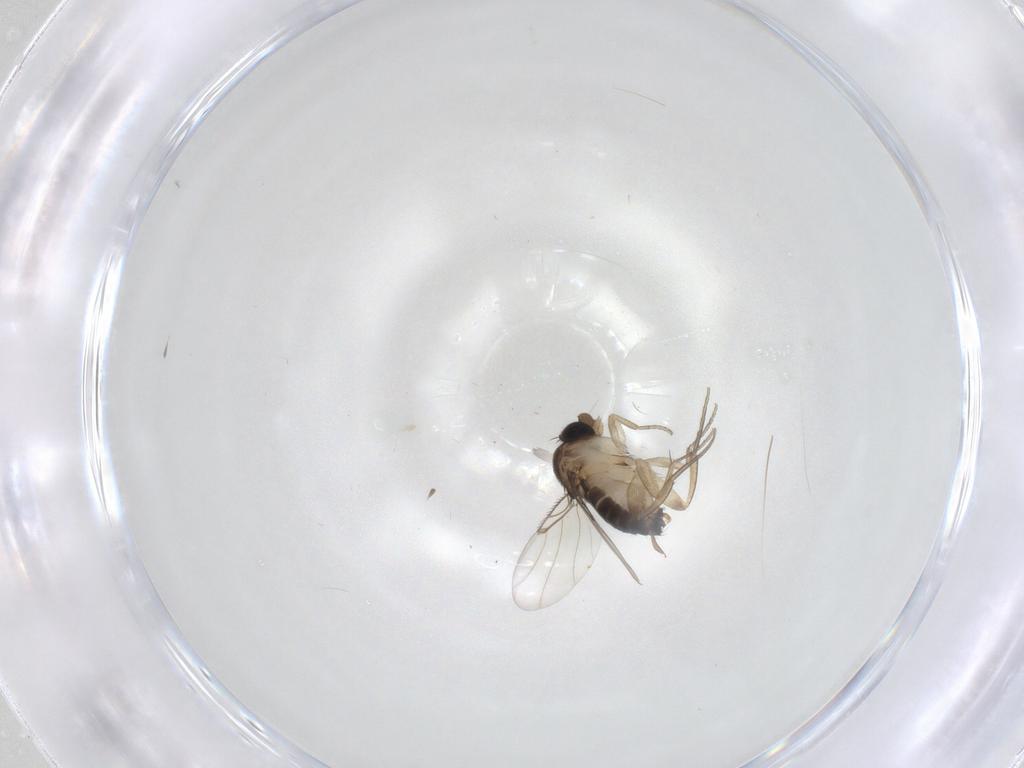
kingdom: Animalia
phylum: Arthropoda
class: Insecta
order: Diptera
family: Phoridae
